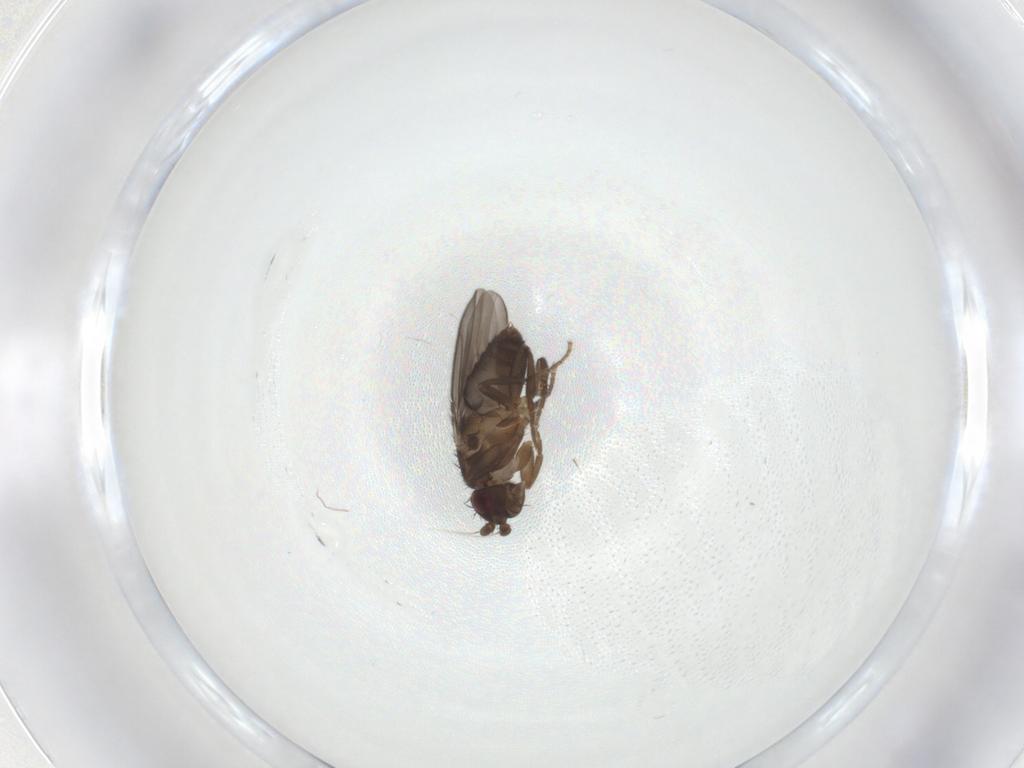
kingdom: Animalia
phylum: Arthropoda
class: Insecta
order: Diptera
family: Sphaeroceridae
